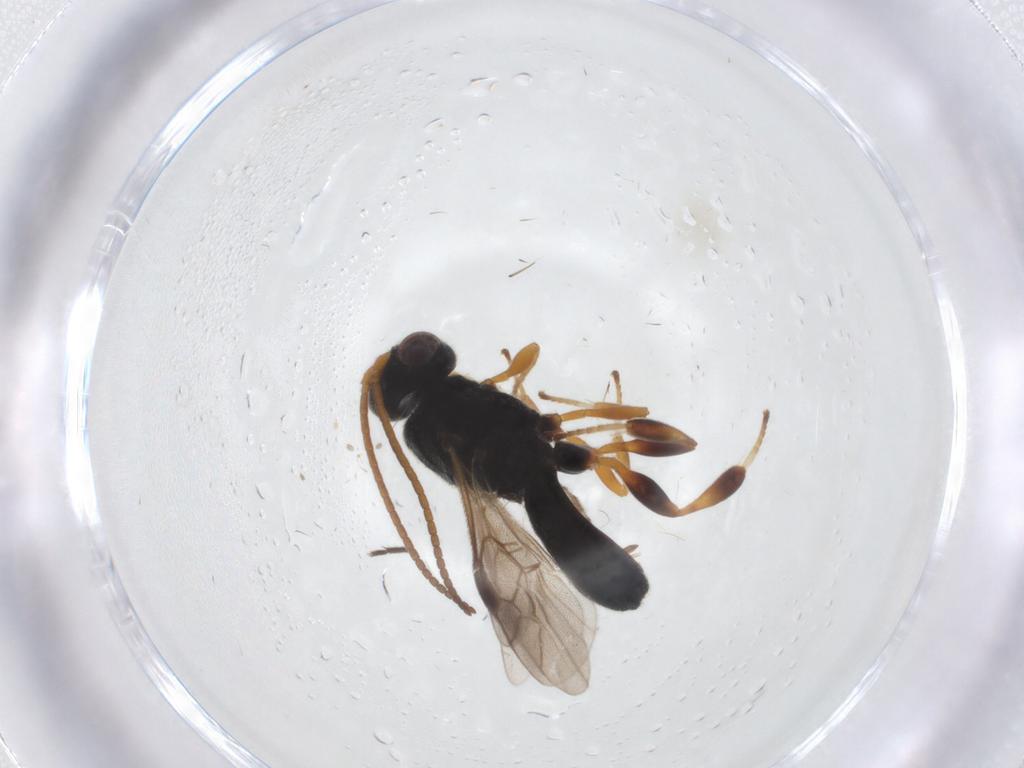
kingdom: Animalia
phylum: Arthropoda
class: Insecta
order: Hymenoptera
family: Braconidae
